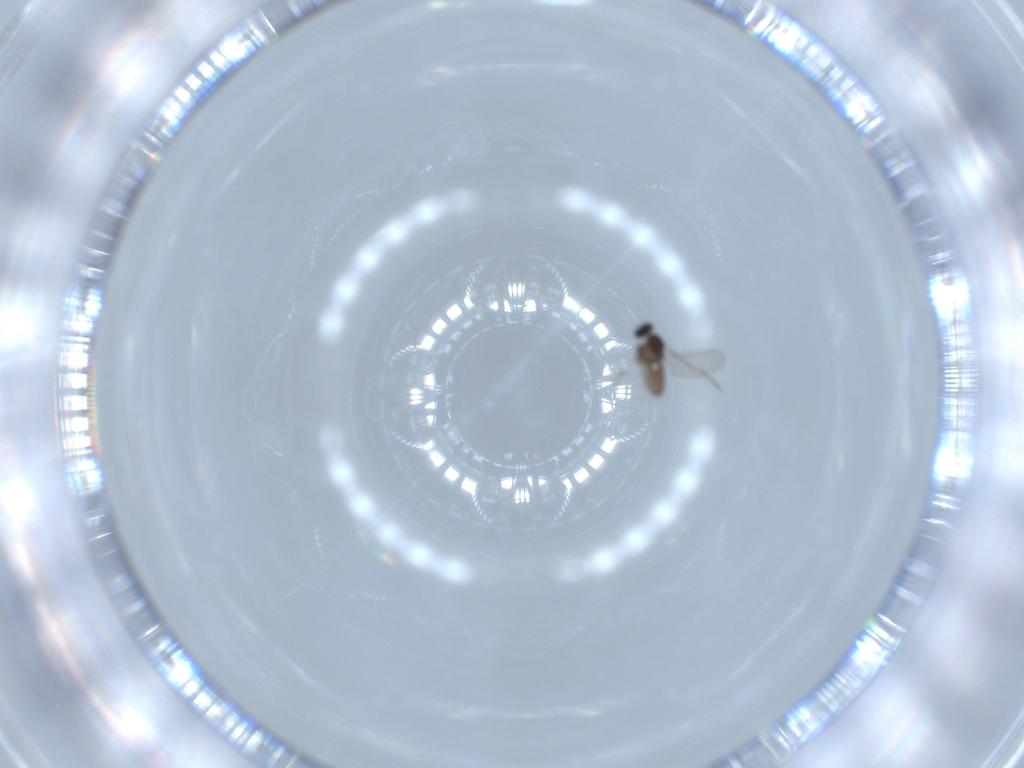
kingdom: Animalia
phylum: Arthropoda
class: Insecta
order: Diptera
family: Cecidomyiidae
